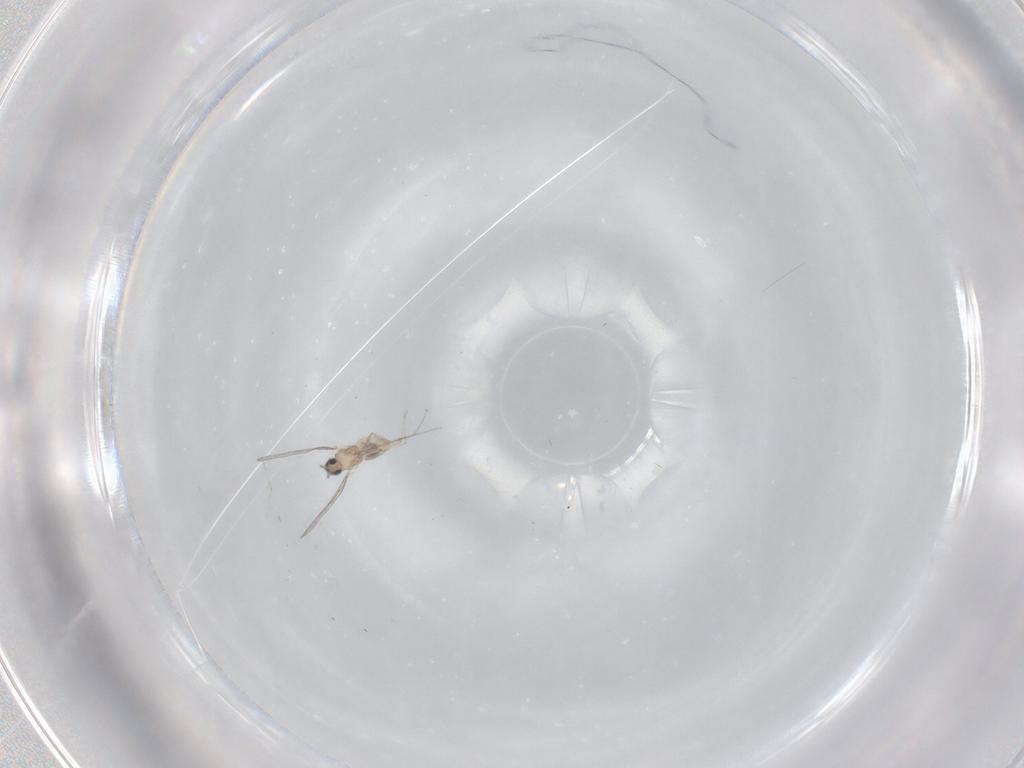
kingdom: Animalia
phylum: Arthropoda
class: Insecta
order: Diptera
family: Cecidomyiidae
